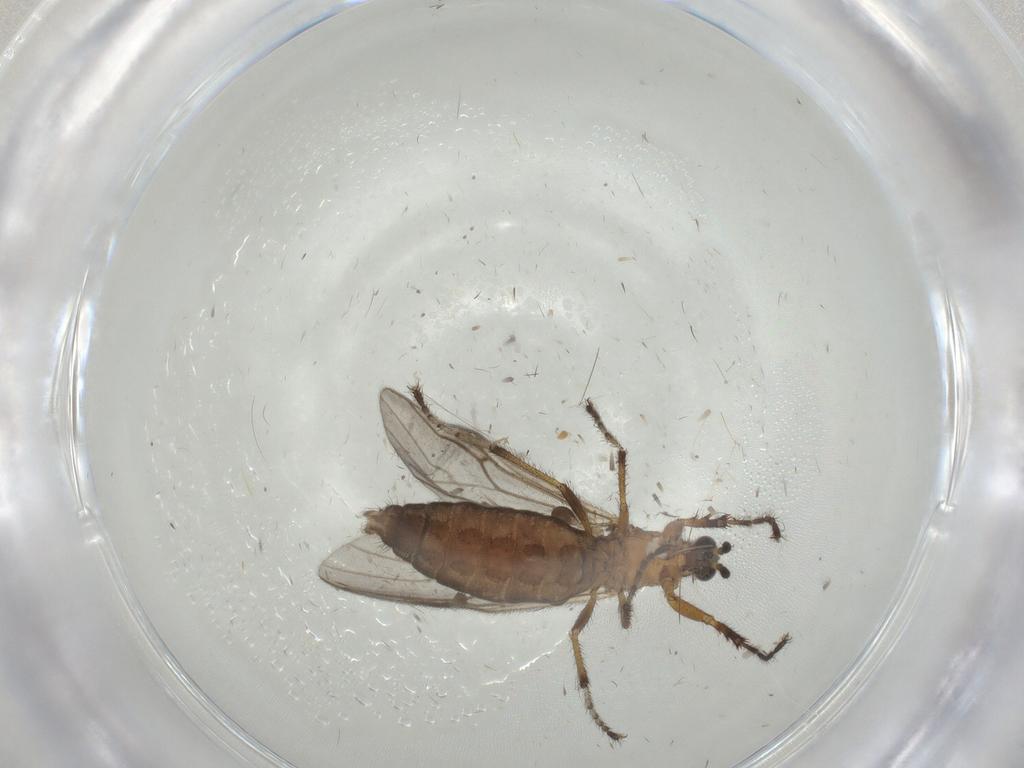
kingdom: Animalia
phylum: Arthropoda
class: Insecta
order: Diptera
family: Bibionidae
